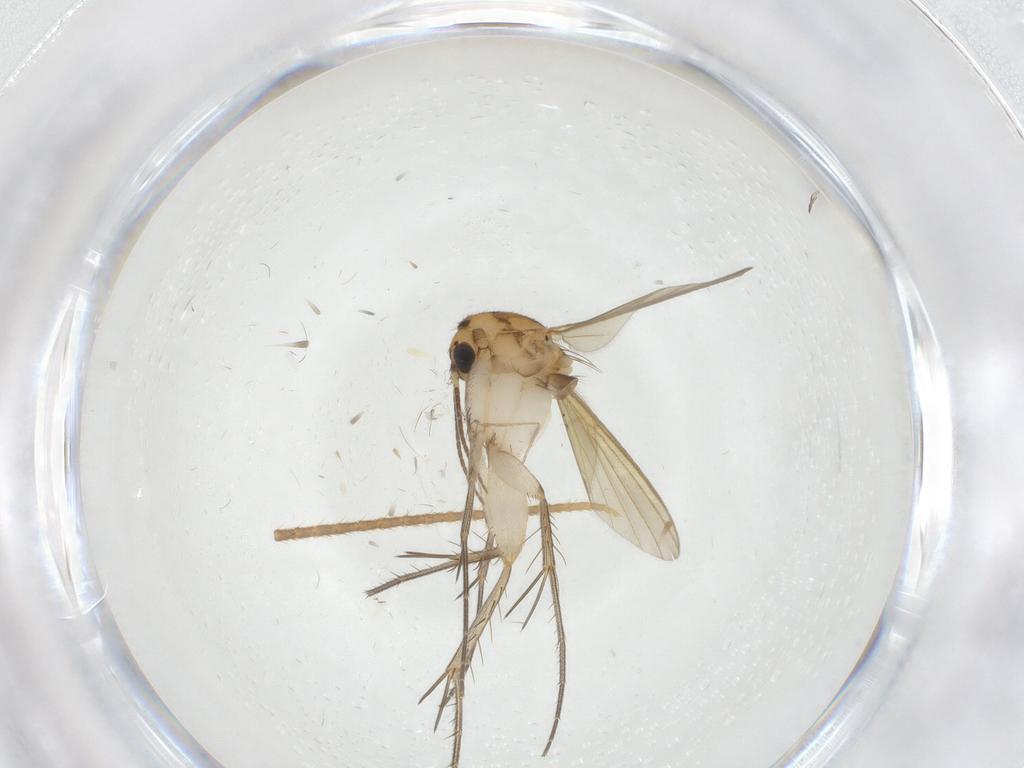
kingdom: Animalia
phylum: Arthropoda
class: Insecta
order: Diptera
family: Mycetophilidae
